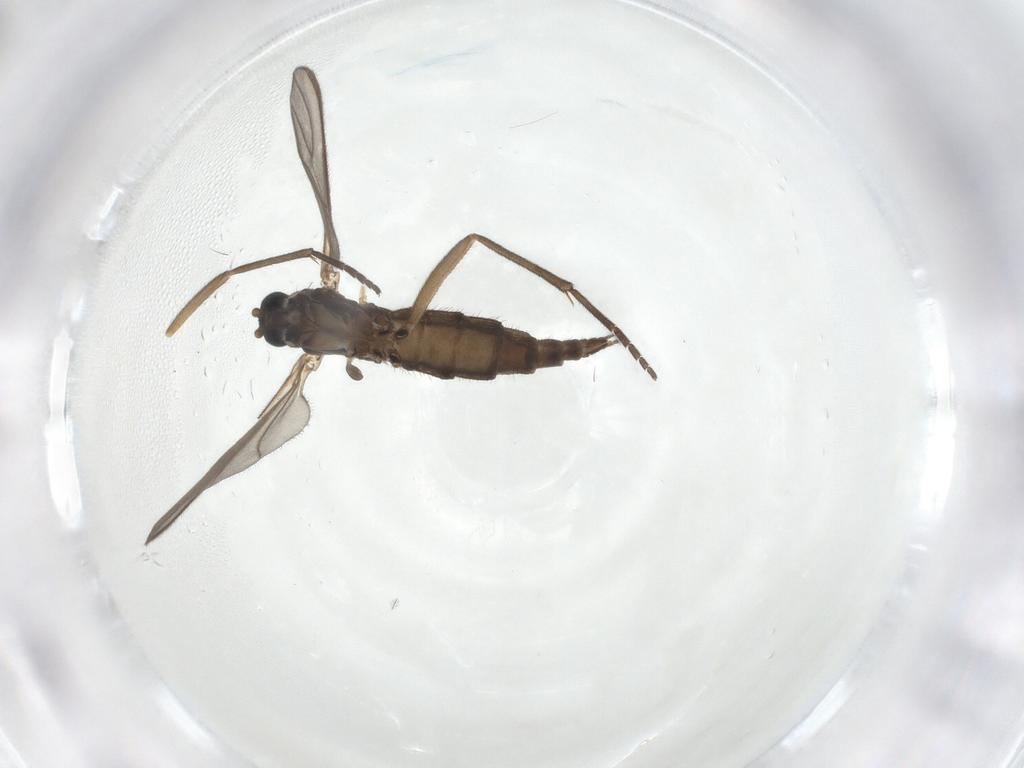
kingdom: Animalia
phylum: Arthropoda
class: Insecta
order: Diptera
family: Sciaridae
